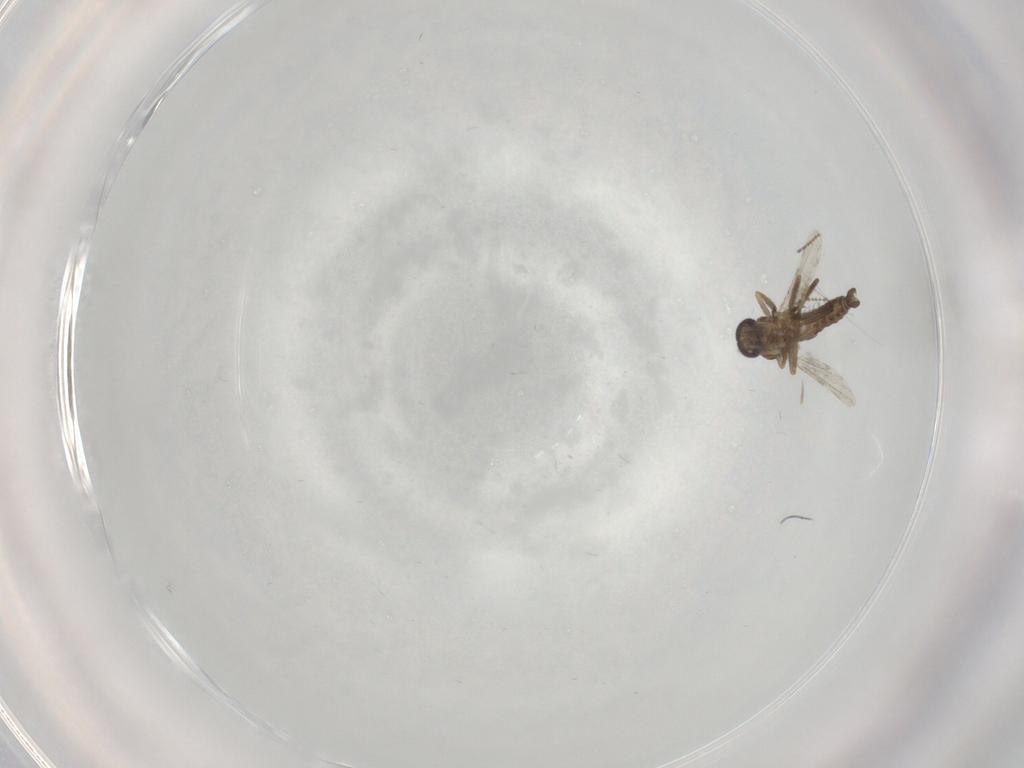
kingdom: Animalia
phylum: Arthropoda
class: Insecta
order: Diptera
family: Ceratopogonidae
